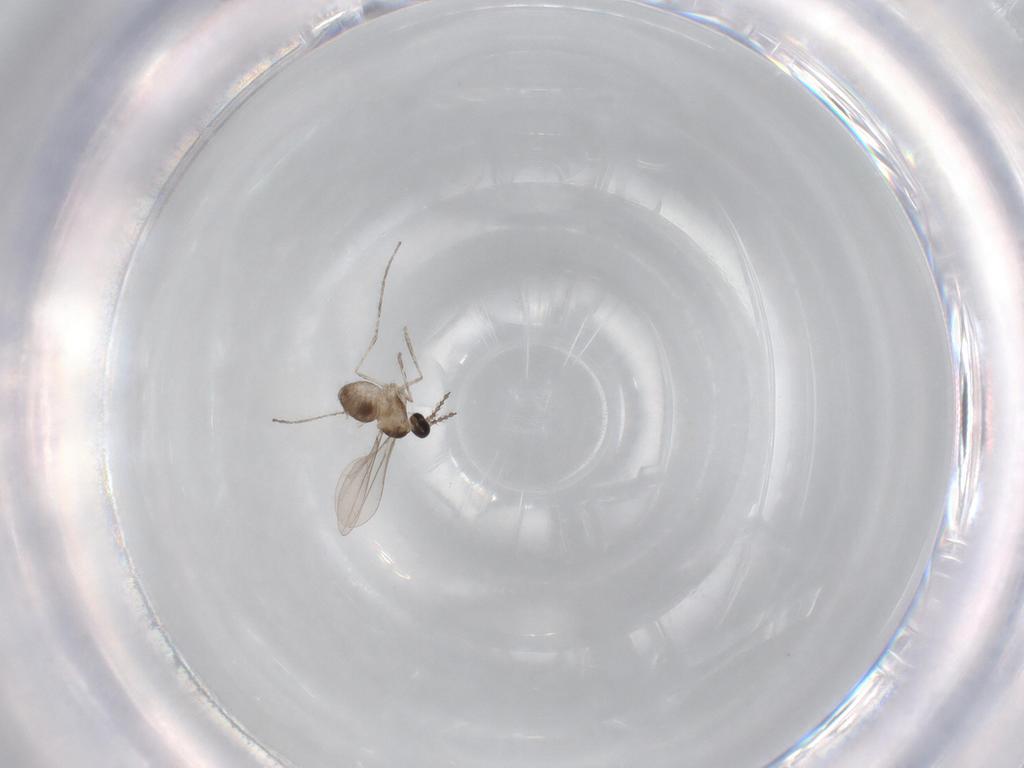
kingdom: Animalia
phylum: Arthropoda
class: Insecta
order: Diptera
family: Cecidomyiidae
